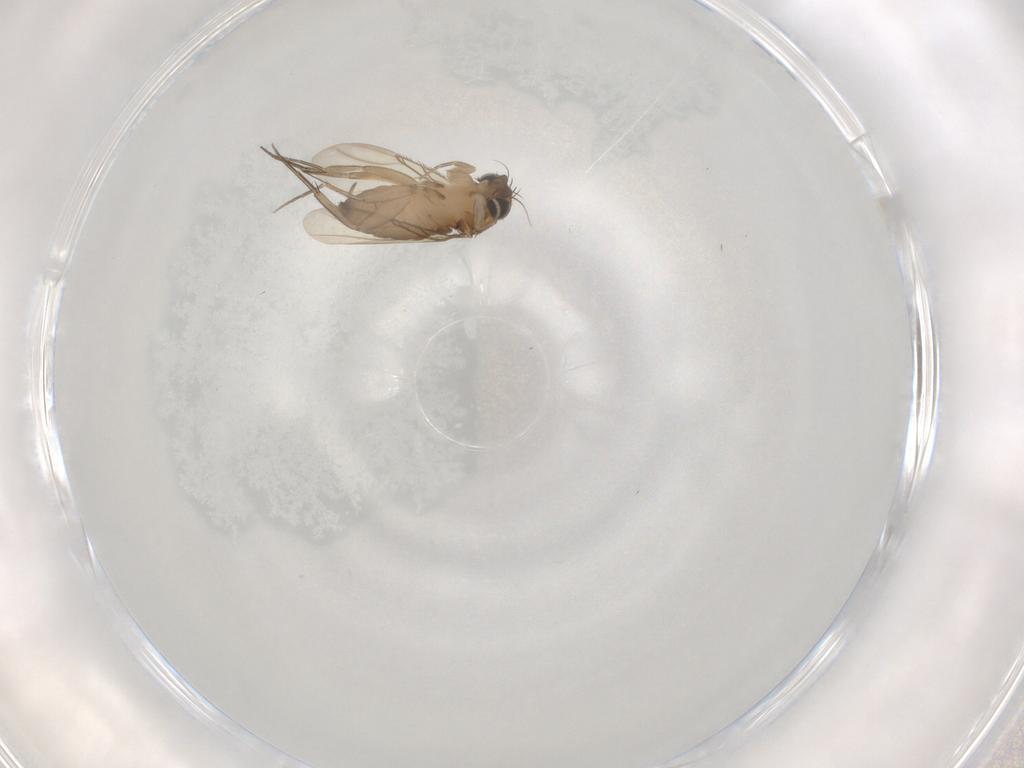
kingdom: Animalia
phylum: Arthropoda
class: Insecta
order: Diptera
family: Phoridae
